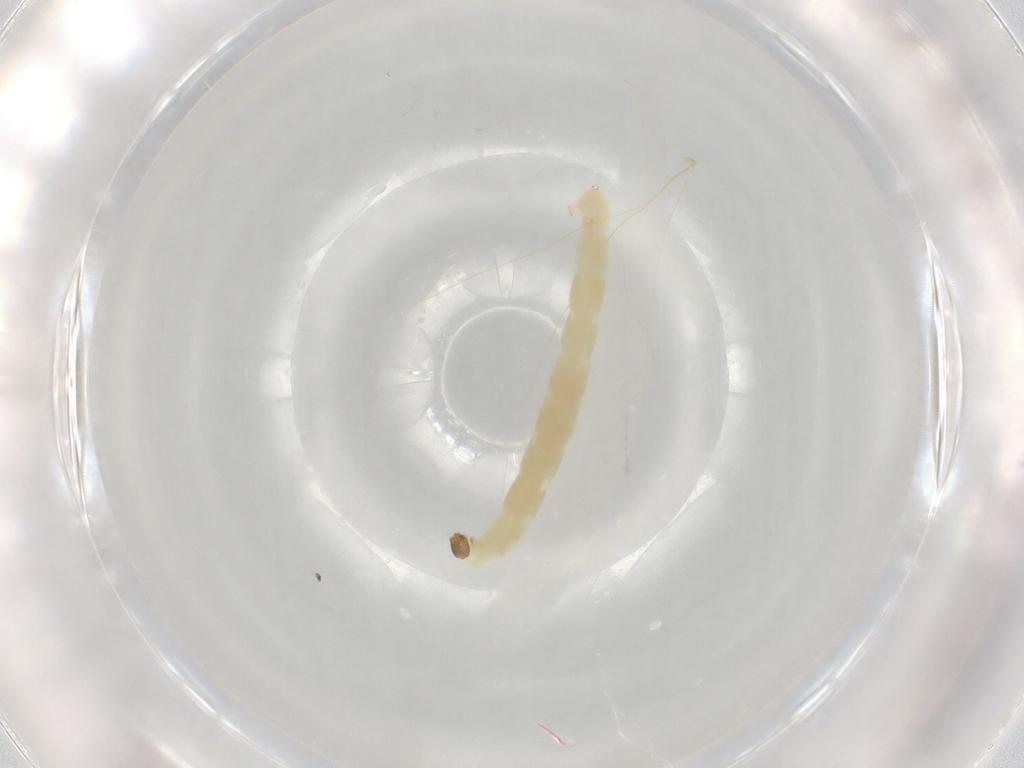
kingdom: Animalia
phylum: Arthropoda
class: Insecta
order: Diptera
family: Chironomidae
